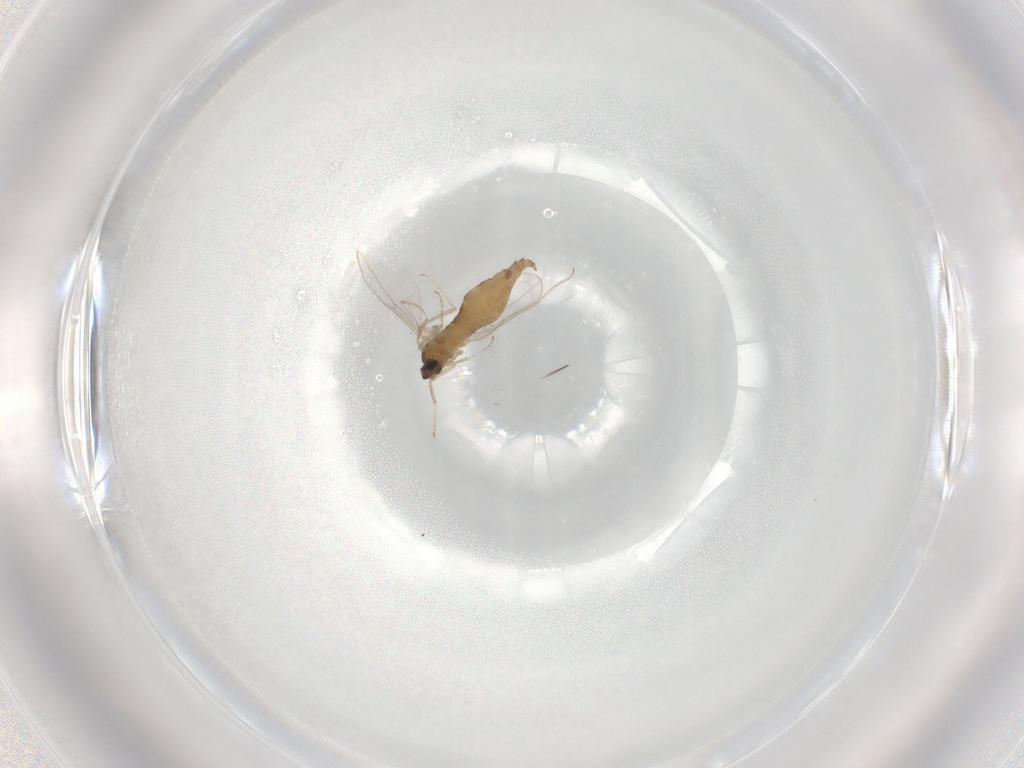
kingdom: Animalia
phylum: Arthropoda
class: Insecta
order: Diptera
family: Cecidomyiidae
